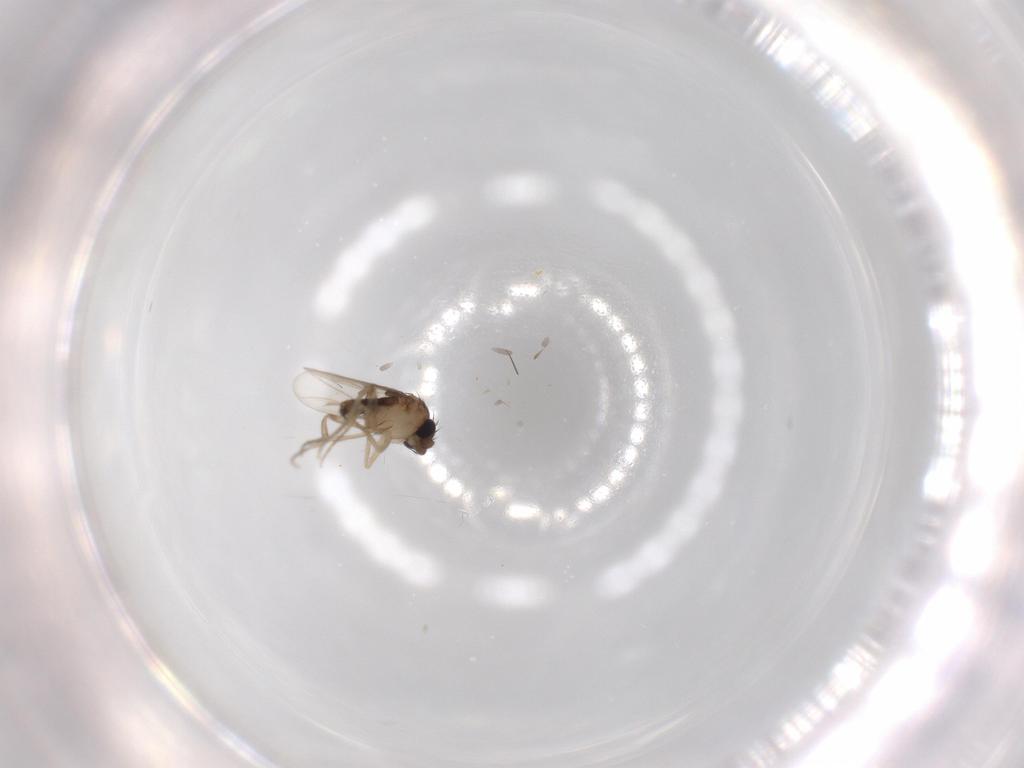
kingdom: Animalia
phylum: Arthropoda
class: Insecta
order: Diptera
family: Phoridae
